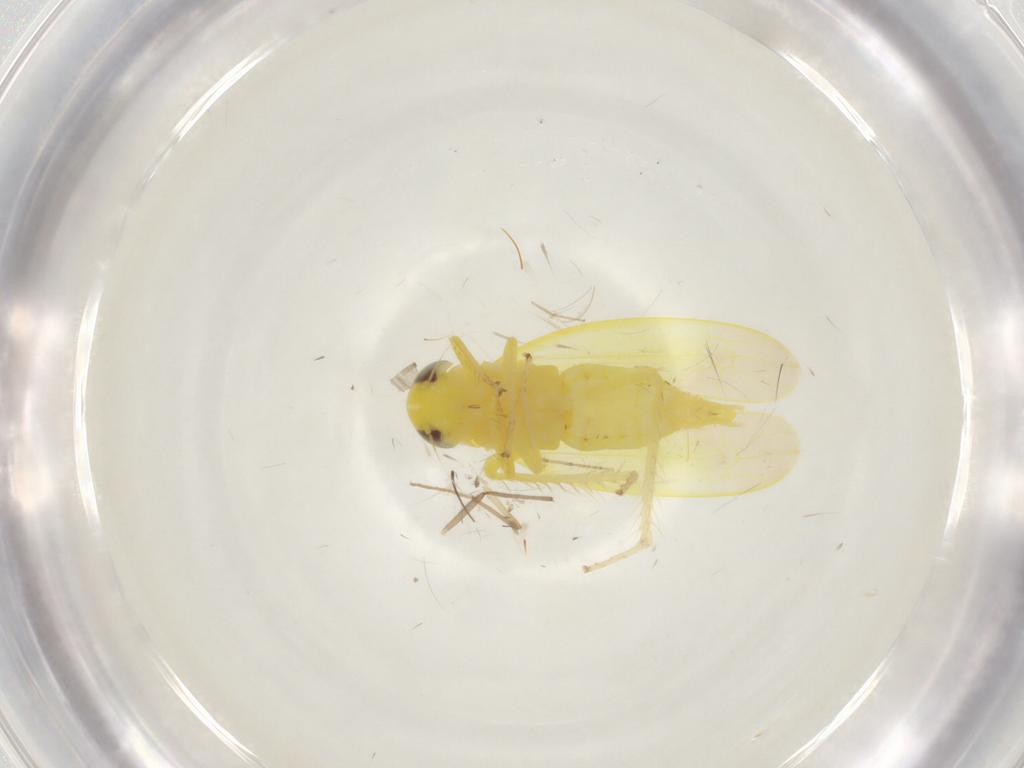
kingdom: Animalia
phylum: Arthropoda
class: Insecta
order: Hemiptera
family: Cicadellidae
